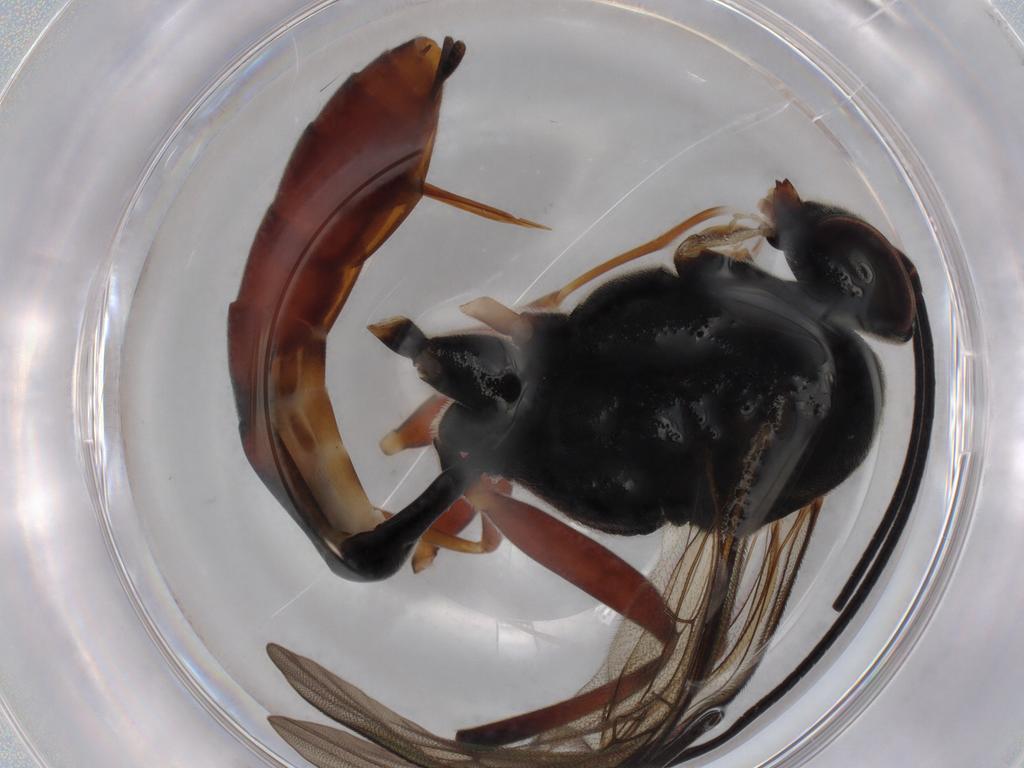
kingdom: Animalia
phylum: Arthropoda
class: Insecta
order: Hymenoptera
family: Ichneumonidae
